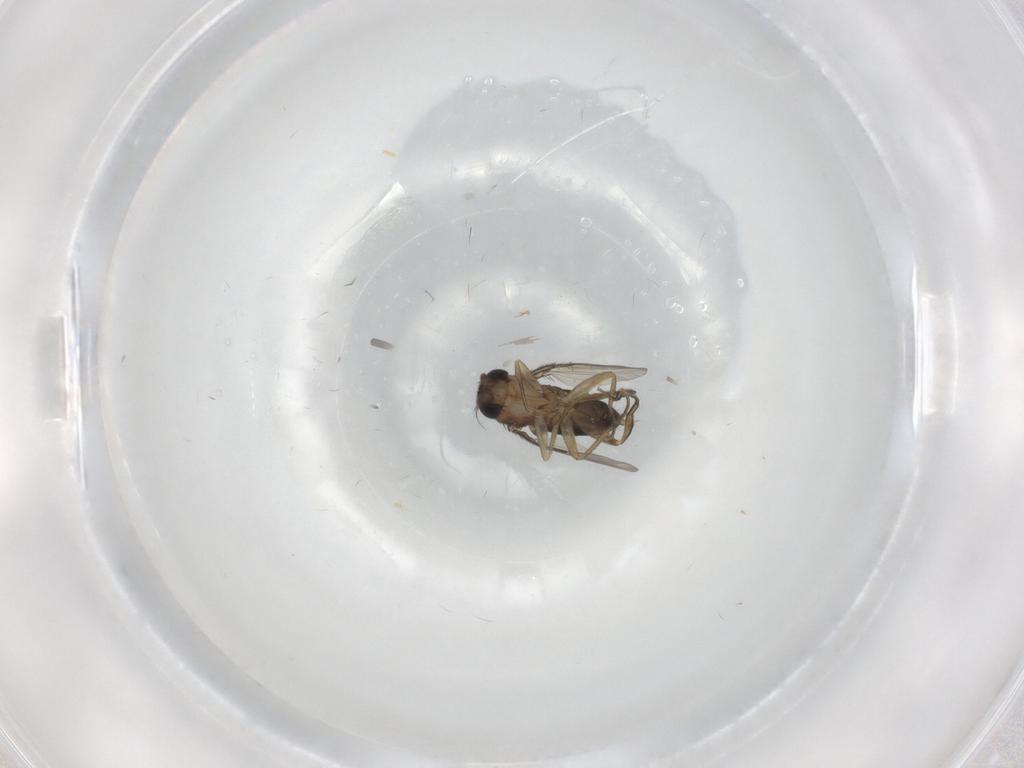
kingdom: Animalia
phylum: Arthropoda
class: Insecta
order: Diptera
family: Phoridae
